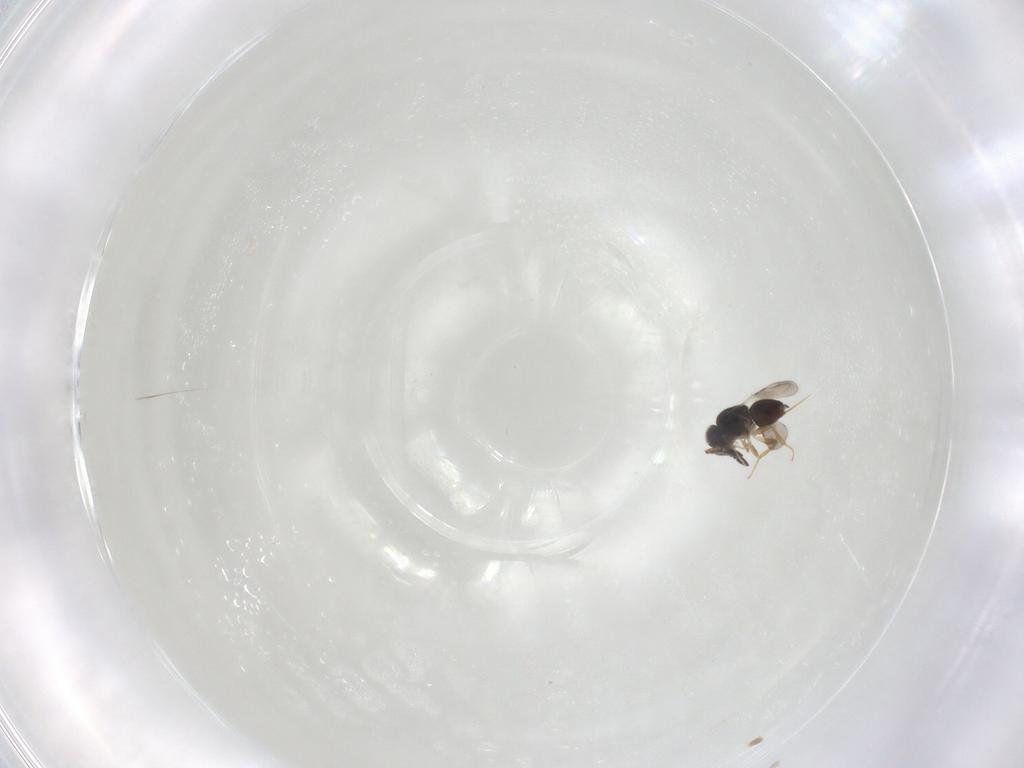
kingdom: Animalia
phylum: Arthropoda
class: Insecta
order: Hymenoptera
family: Ceraphronidae
